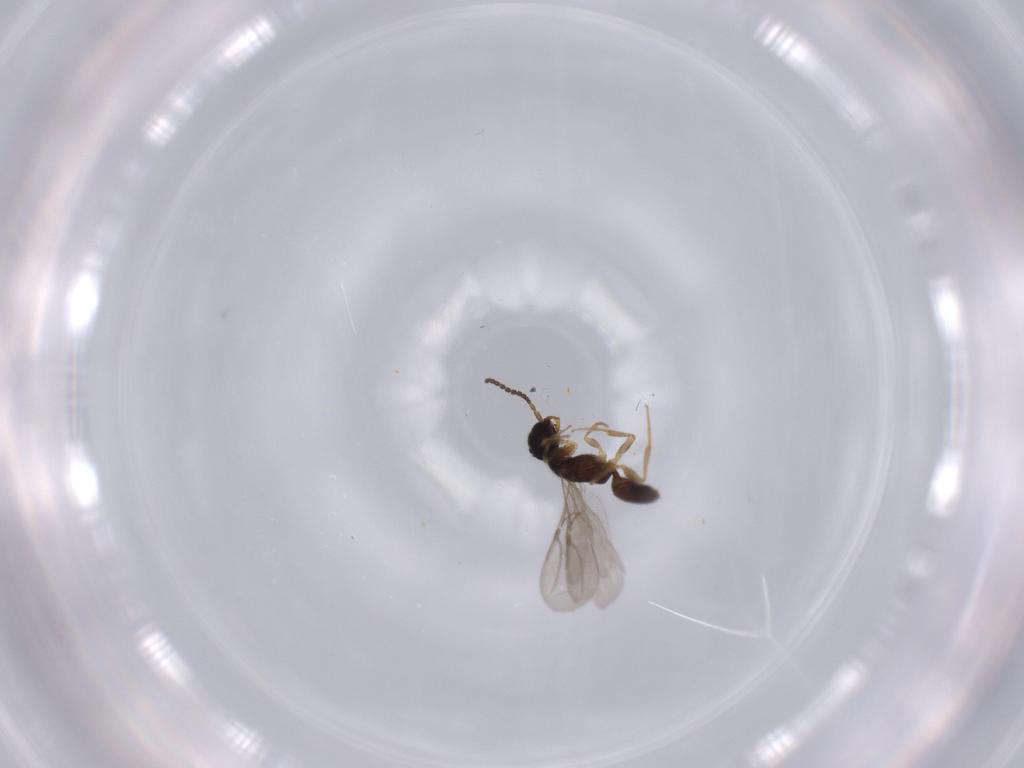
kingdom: Animalia
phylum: Arthropoda
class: Insecta
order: Hymenoptera
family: Bethylidae
